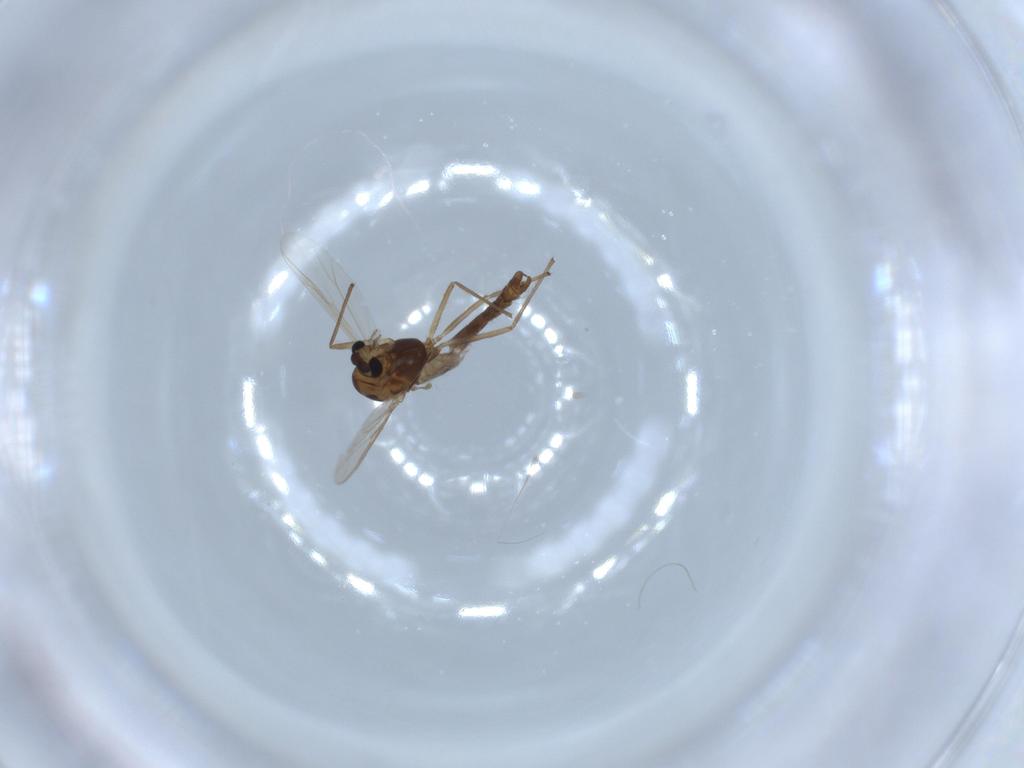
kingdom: Animalia
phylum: Arthropoda
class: Insecta
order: Diptera
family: Chironomidae
